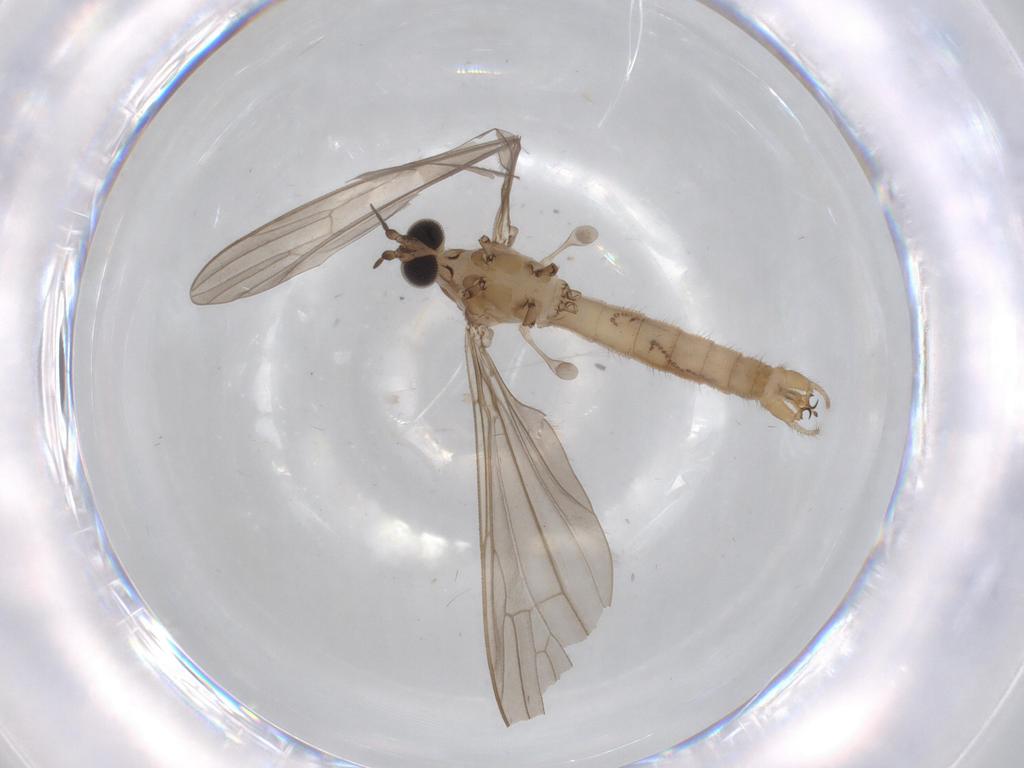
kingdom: Animalia
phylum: Arthropoda
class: Insecta
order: Diptera
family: Limoniidae
